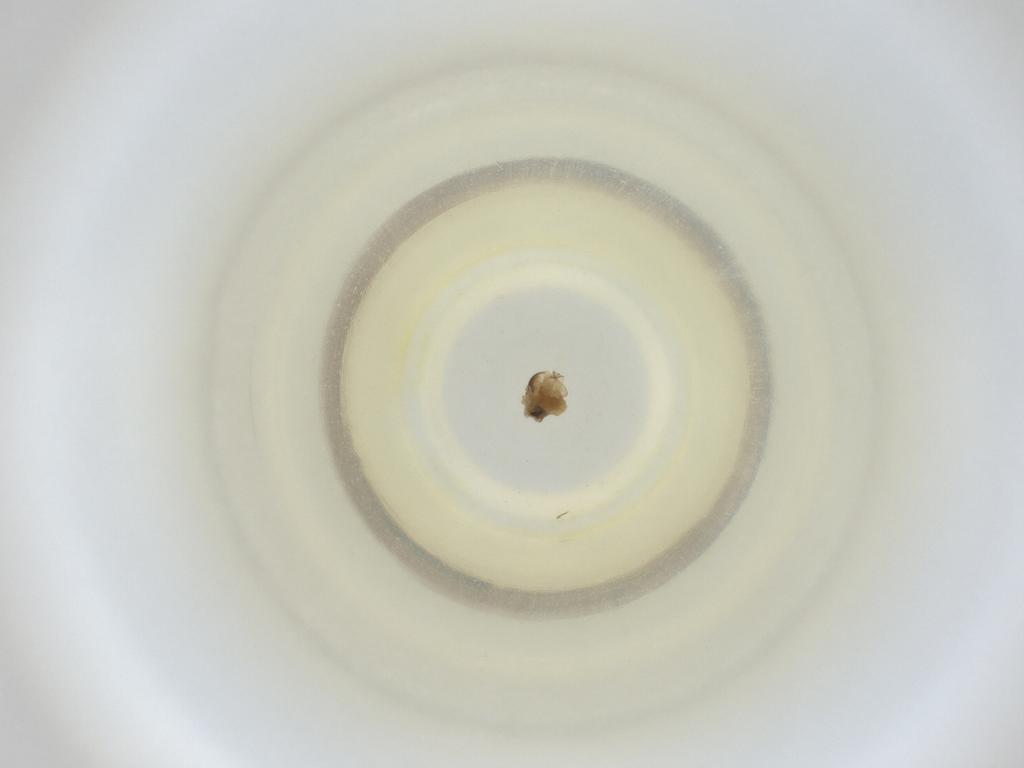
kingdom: Animalia
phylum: Arthropoda
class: Insecta
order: Diptera
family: Cecidomyiidae
